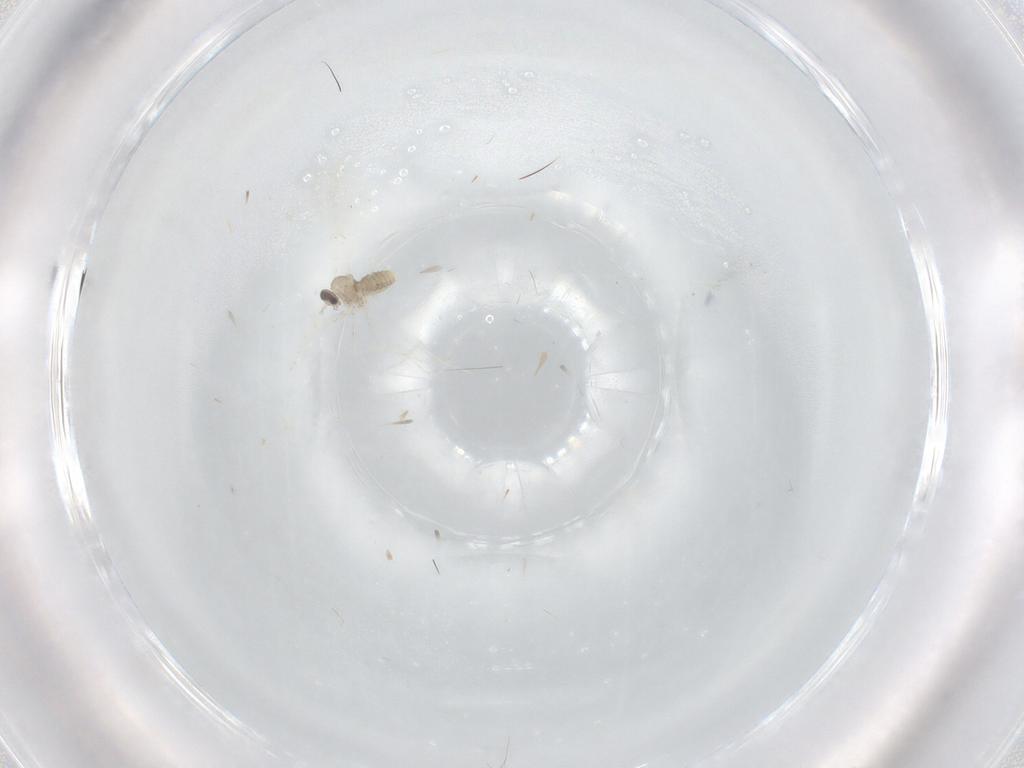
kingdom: Animalia
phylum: Arthropoda
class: Insecta
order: Diptera
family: Cecidomyiidae
